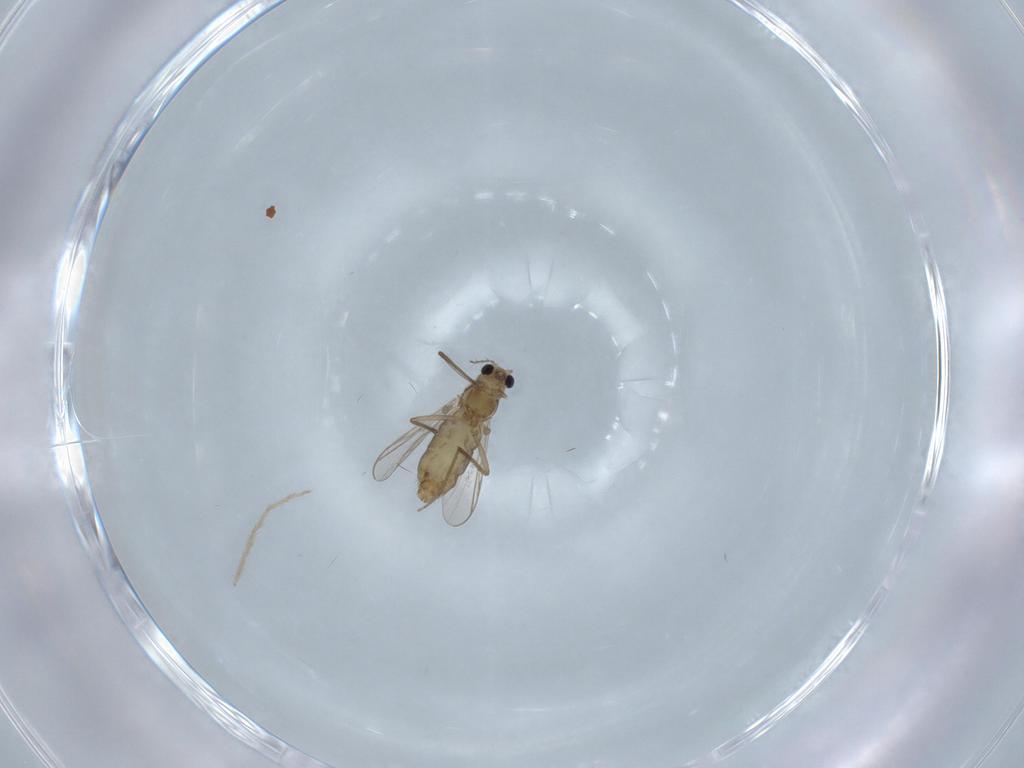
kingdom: Animalia
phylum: Arthropoda
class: Insecta
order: Diptera
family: Chironomidae
